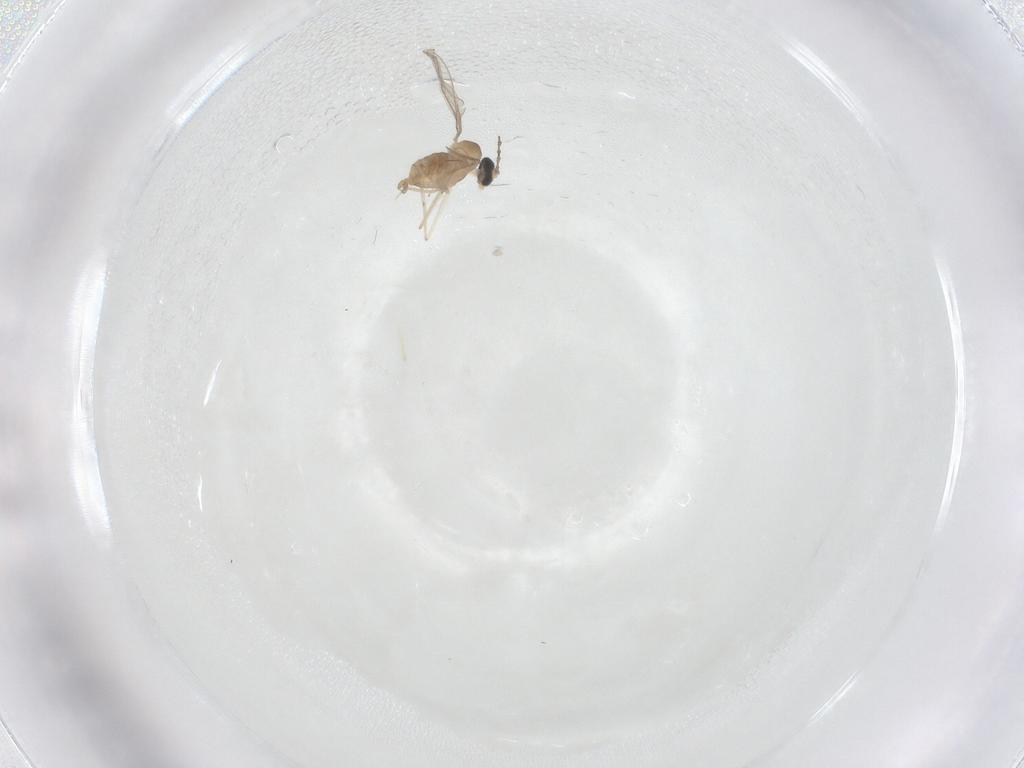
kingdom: Animalia
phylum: Arthropoda
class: Insecta
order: Diptera
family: Cecidomyiidae
